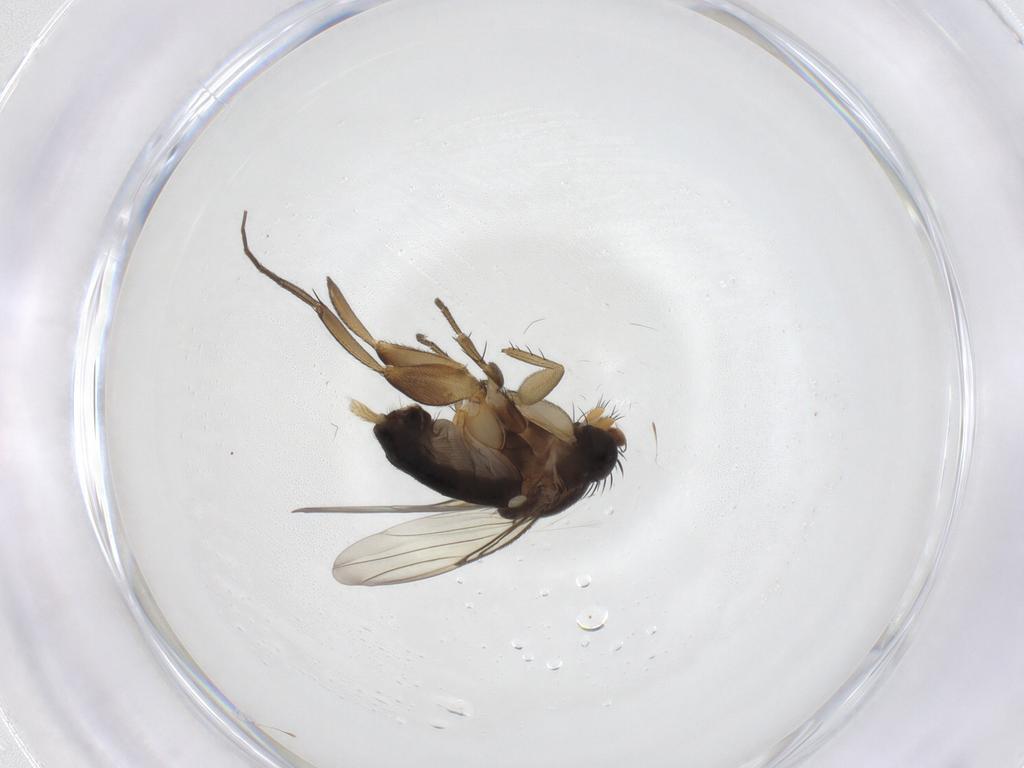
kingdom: Animalia
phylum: Arthropoda
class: Insecta
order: Diptera
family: Phoridae
